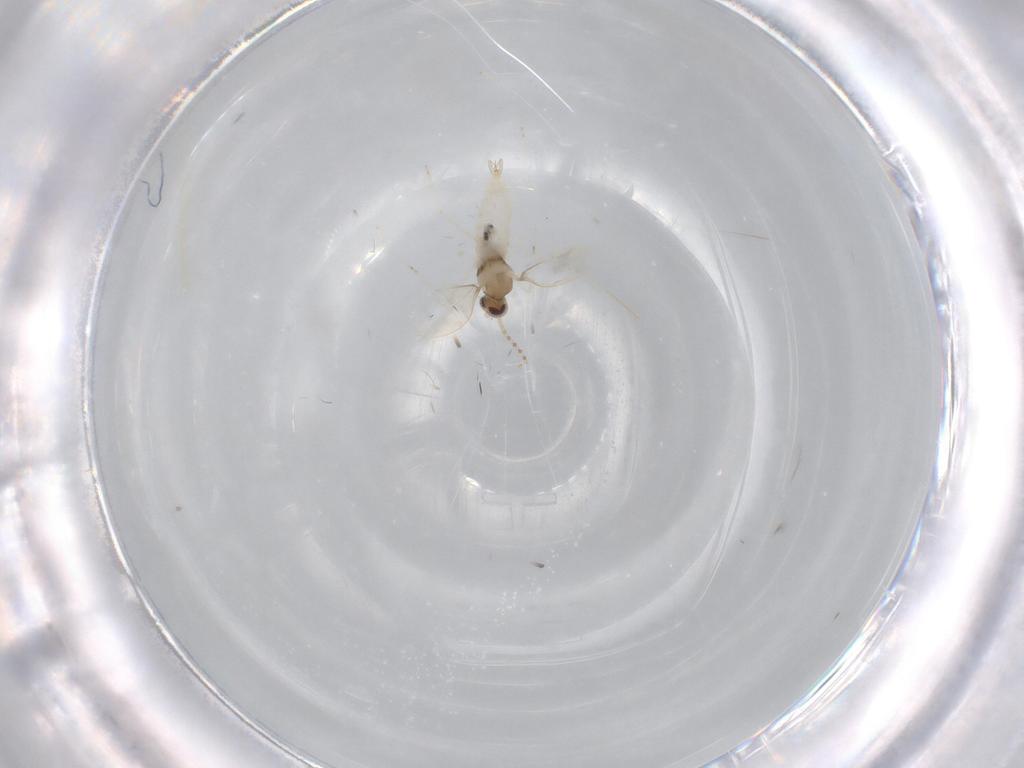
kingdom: Animalia
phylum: Arthropoda
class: Insecta
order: Diptera
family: Cecidomyiidae
